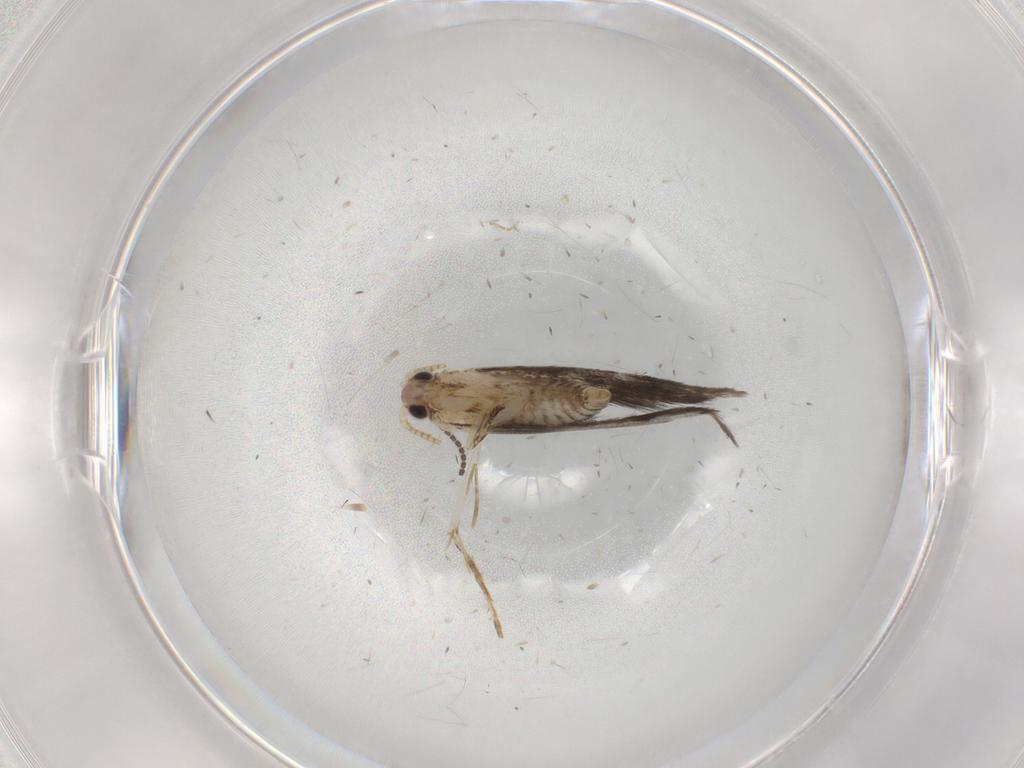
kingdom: Animalia
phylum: Arthropoda
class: Insecta
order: Lepidoptera
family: Tineidae
